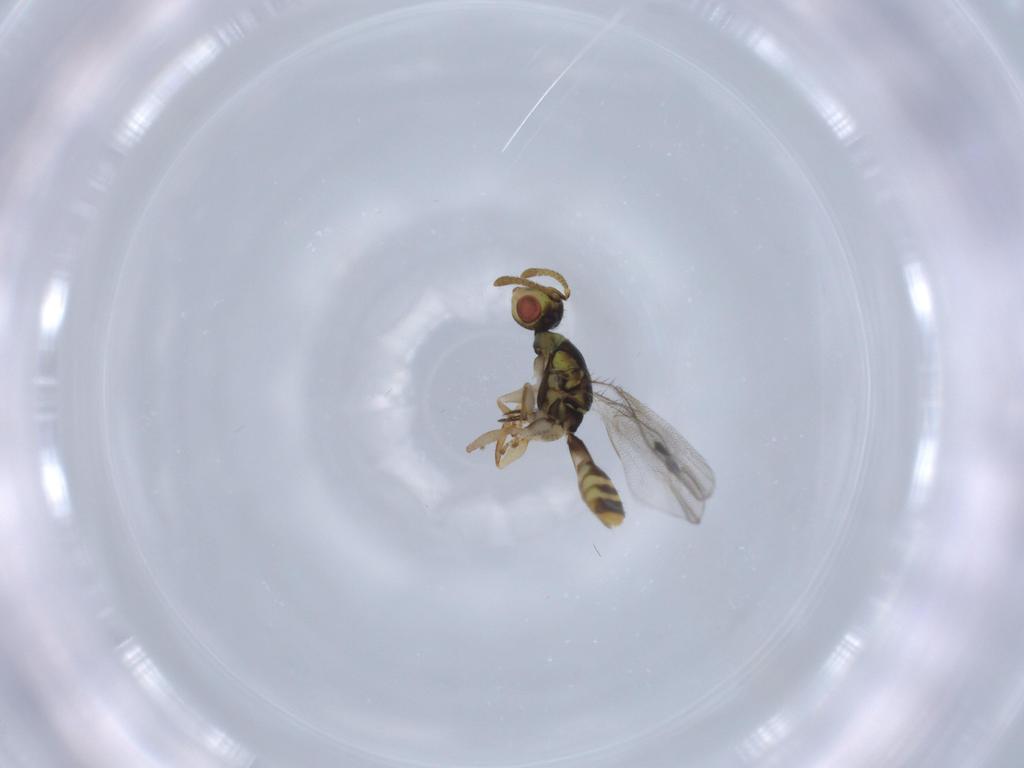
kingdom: Animalia
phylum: Arthropoda
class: Insecta
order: Hymenoptera
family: Megastigmidae
